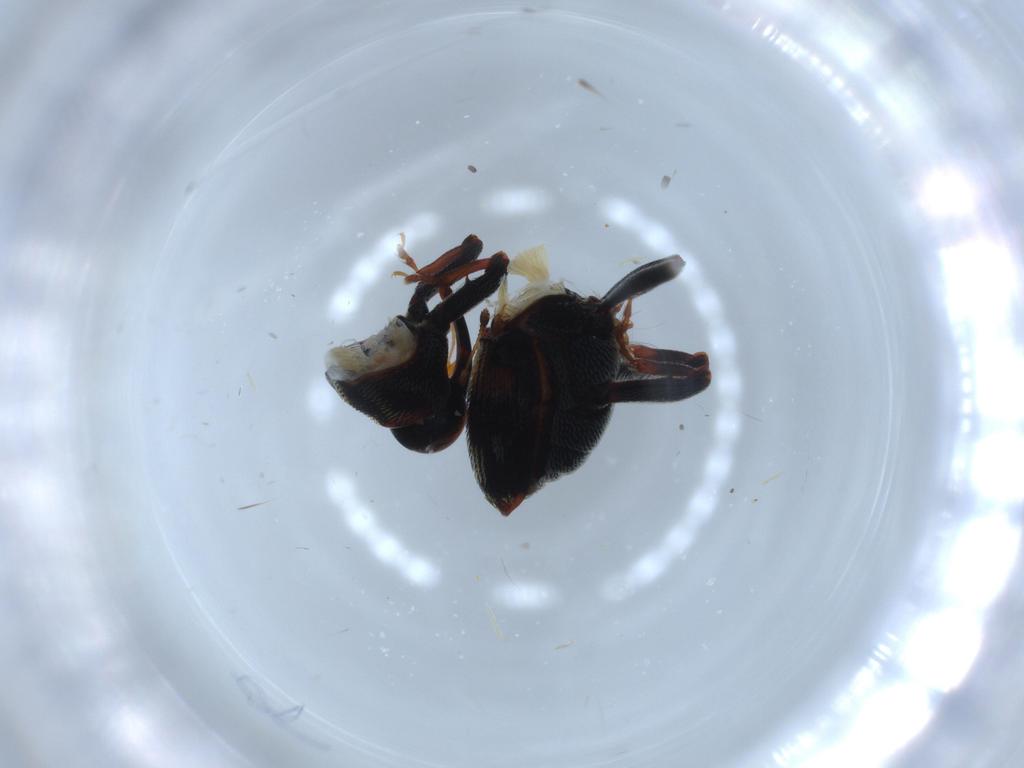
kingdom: Animalia
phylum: Arthropoda
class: Insecta
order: Coleoptera
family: Curculionidae
